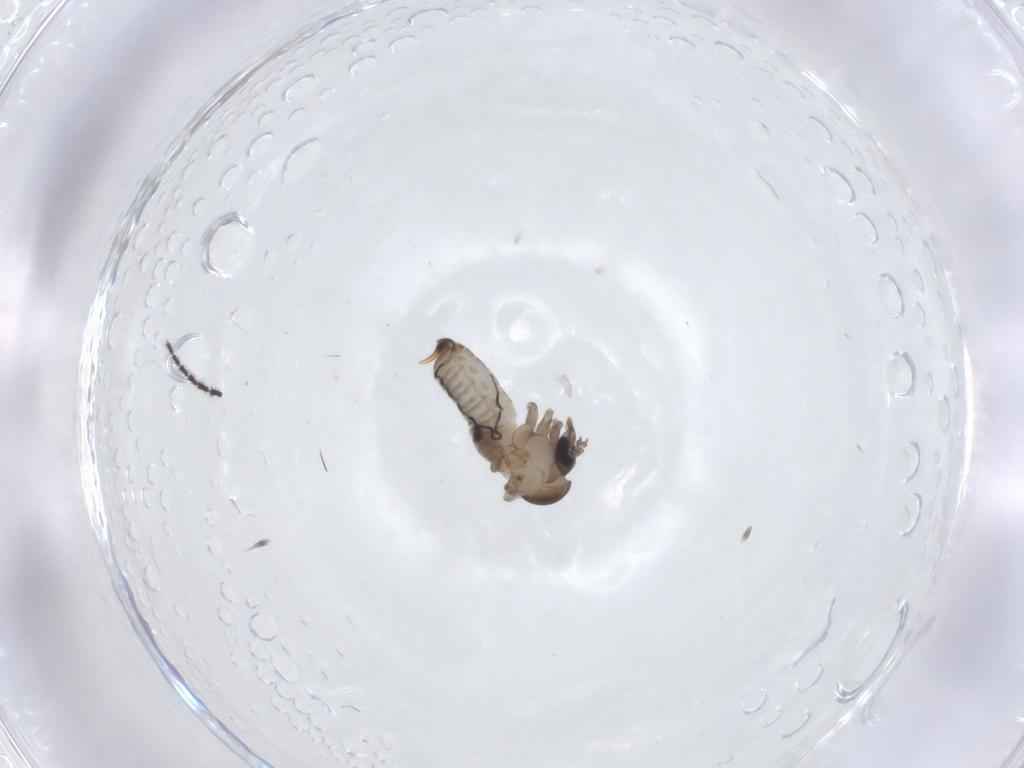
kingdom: Animalia
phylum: Arthropoda
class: Insecta
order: Diptera
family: Psychodidae
